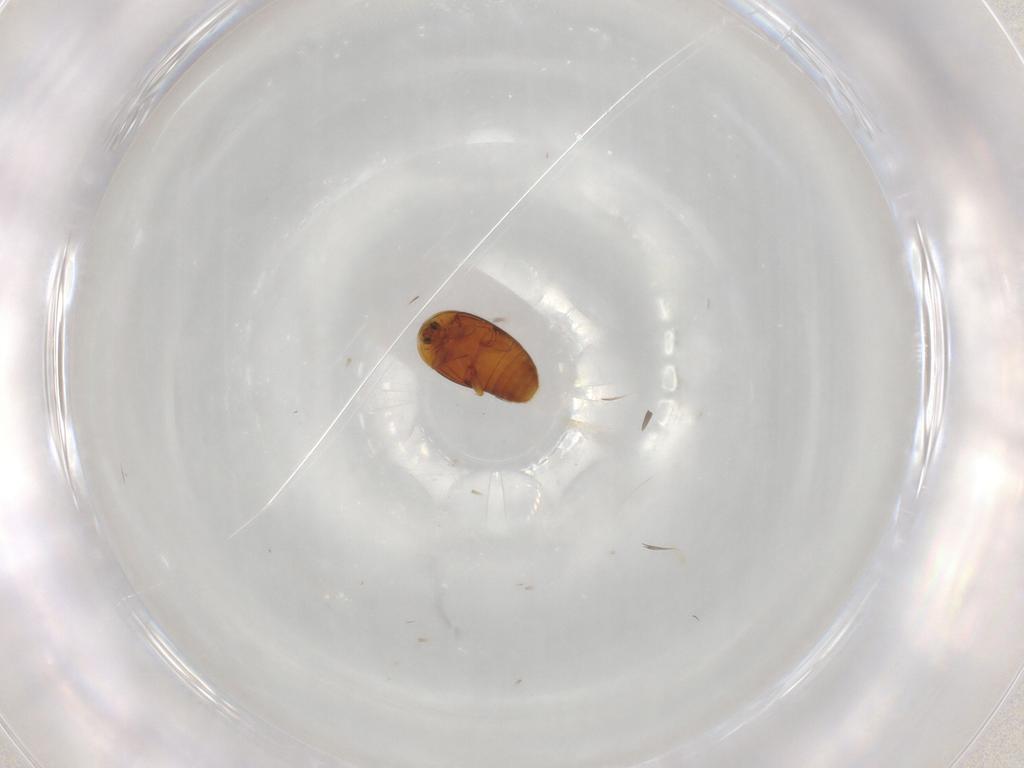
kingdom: Animalia
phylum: Arthropoda
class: Insecta
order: Coleoptera
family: Corylophidae
